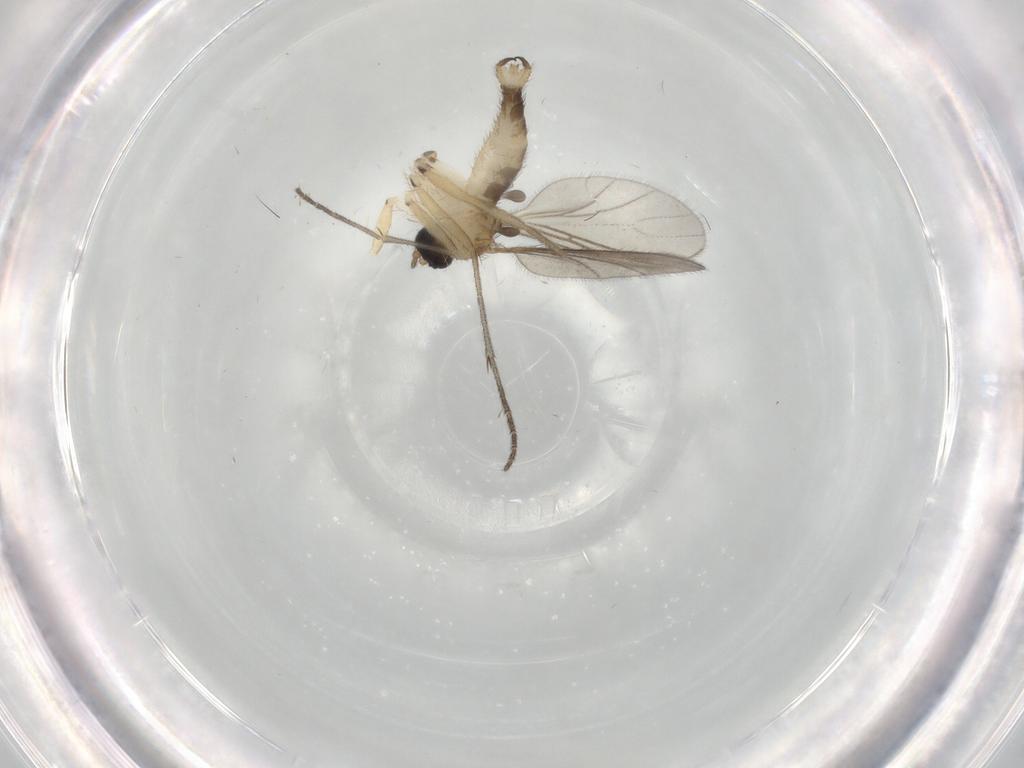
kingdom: Animalia
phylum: Arthropoda
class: Insecta
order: Diptera
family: Sciaridae
